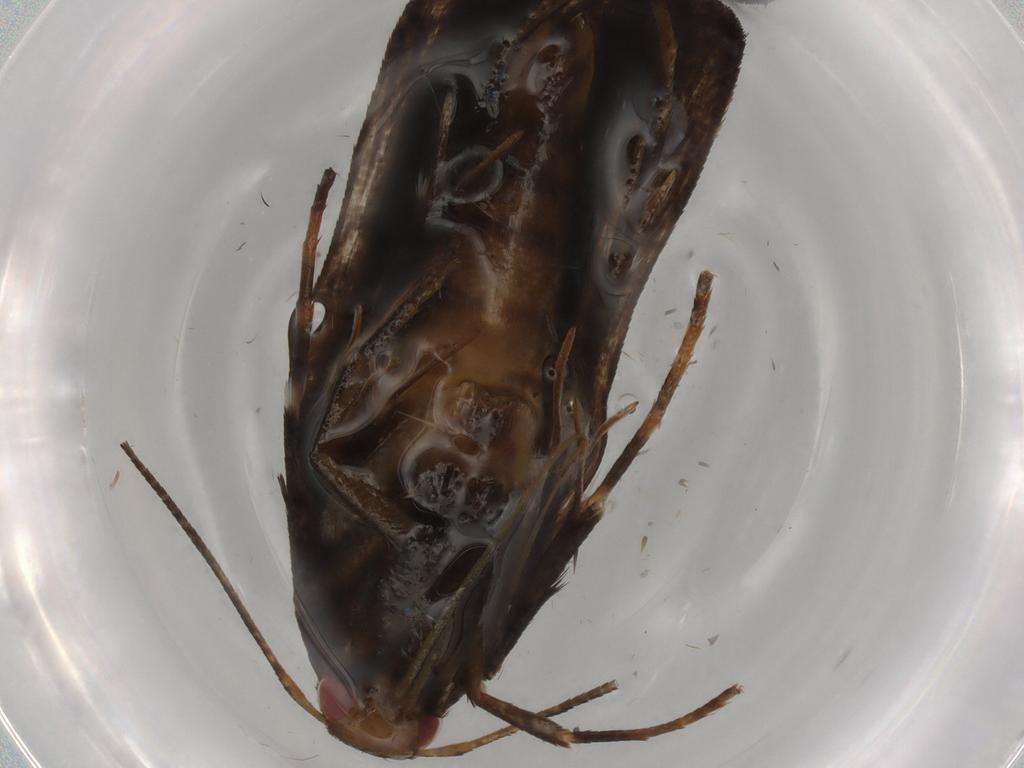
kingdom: Animalia
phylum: Arthropoda
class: Insecta
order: Lepidoptera
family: Gelechiidae
